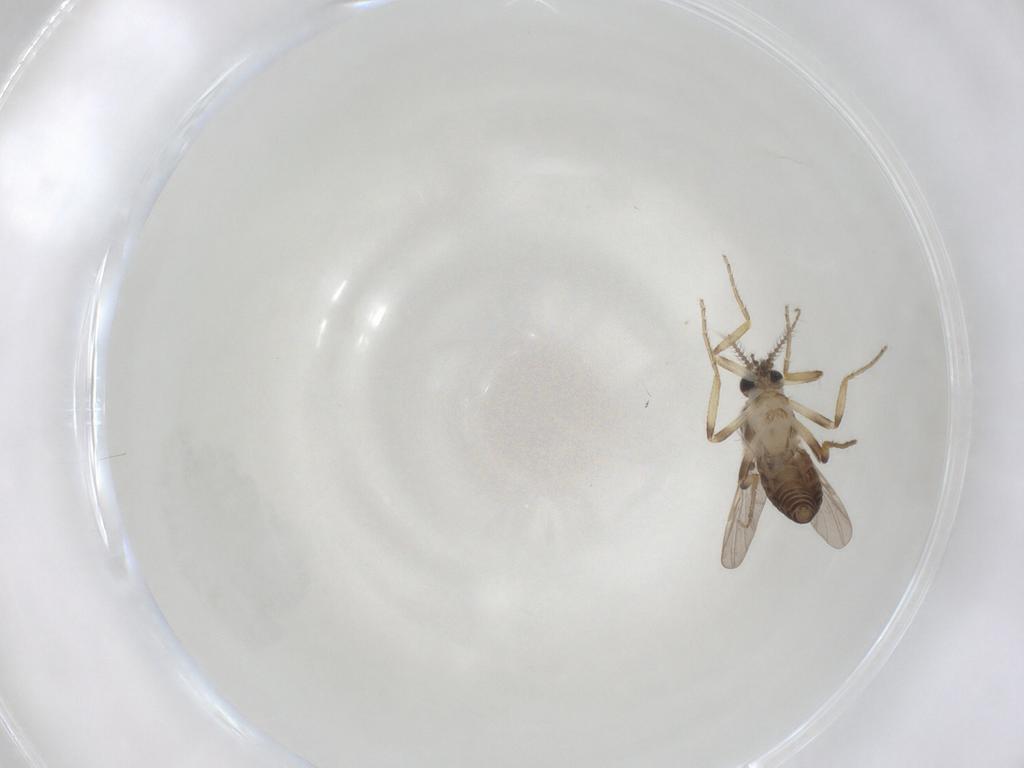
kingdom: Animalia
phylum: Arthropoda
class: Insecta
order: Diptera
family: Ceratopogonidae
